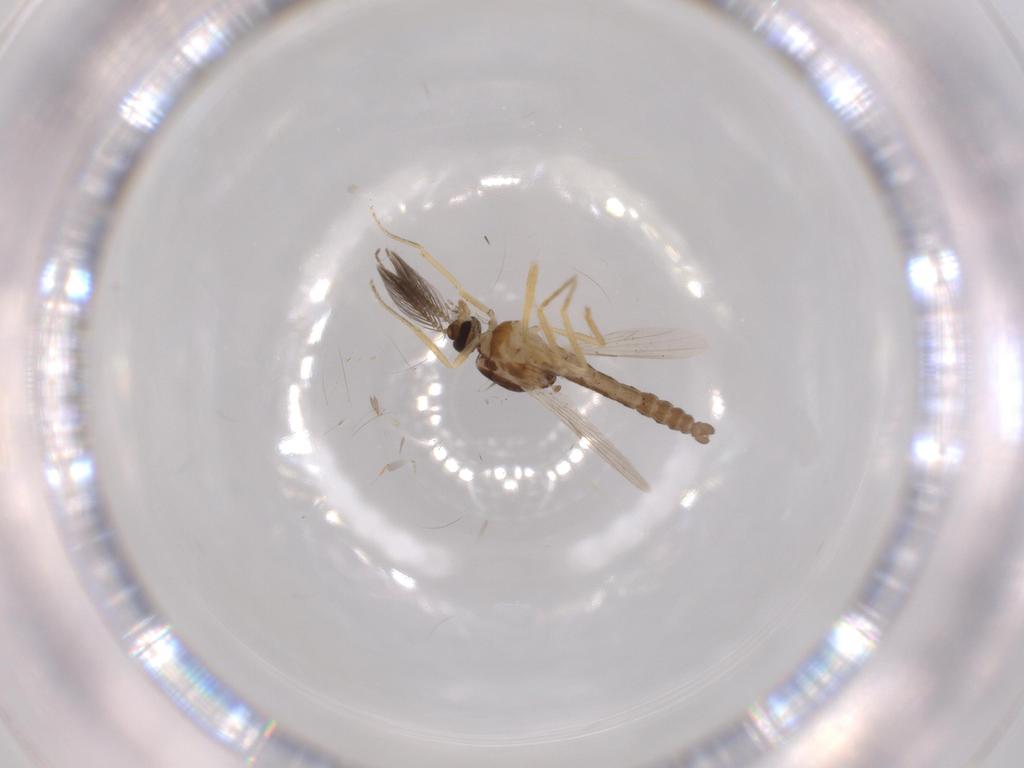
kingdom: Animalia
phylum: Arthropoda
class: Insecta
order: Diptera
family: Ceratopogonidae
